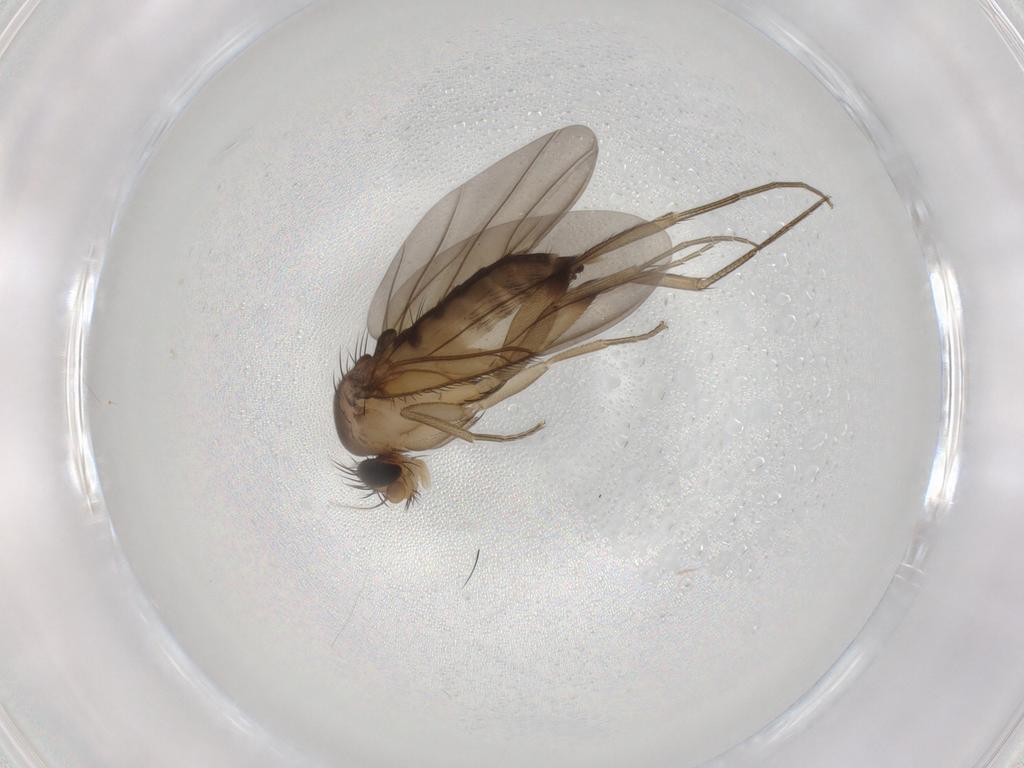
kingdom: Animalia
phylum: Arthropoda
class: Insecta
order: Diptera
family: Phoridae
